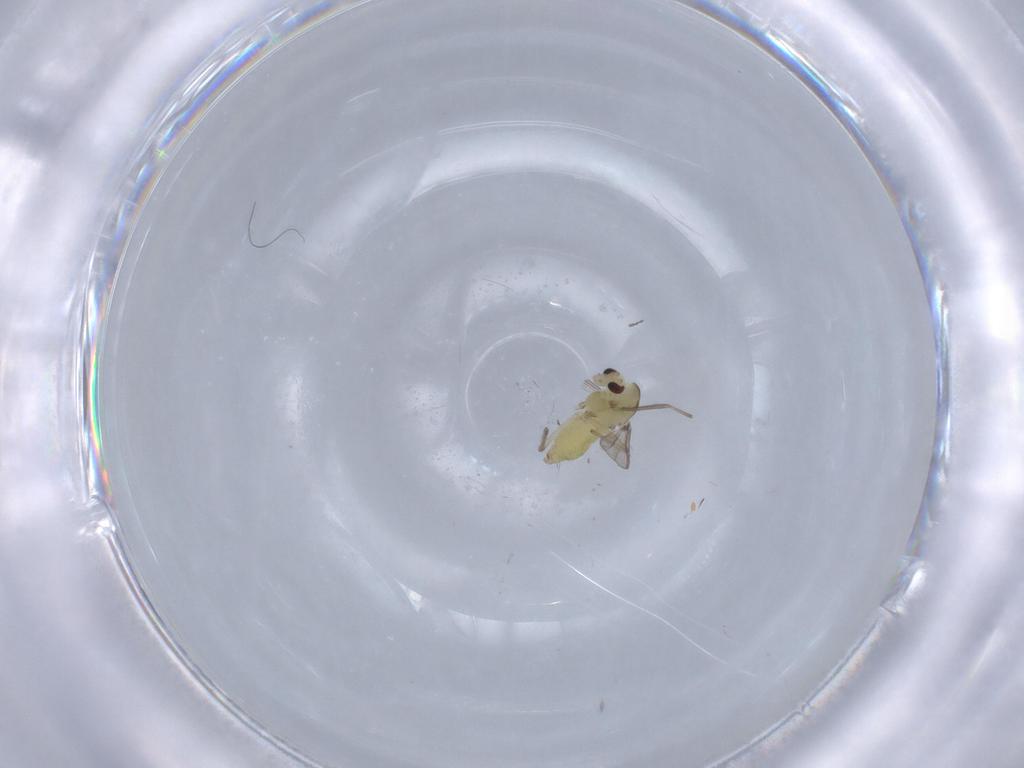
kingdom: Animalia
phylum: Arthropoda
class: Insecta
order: Diptera
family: Chironomidae
